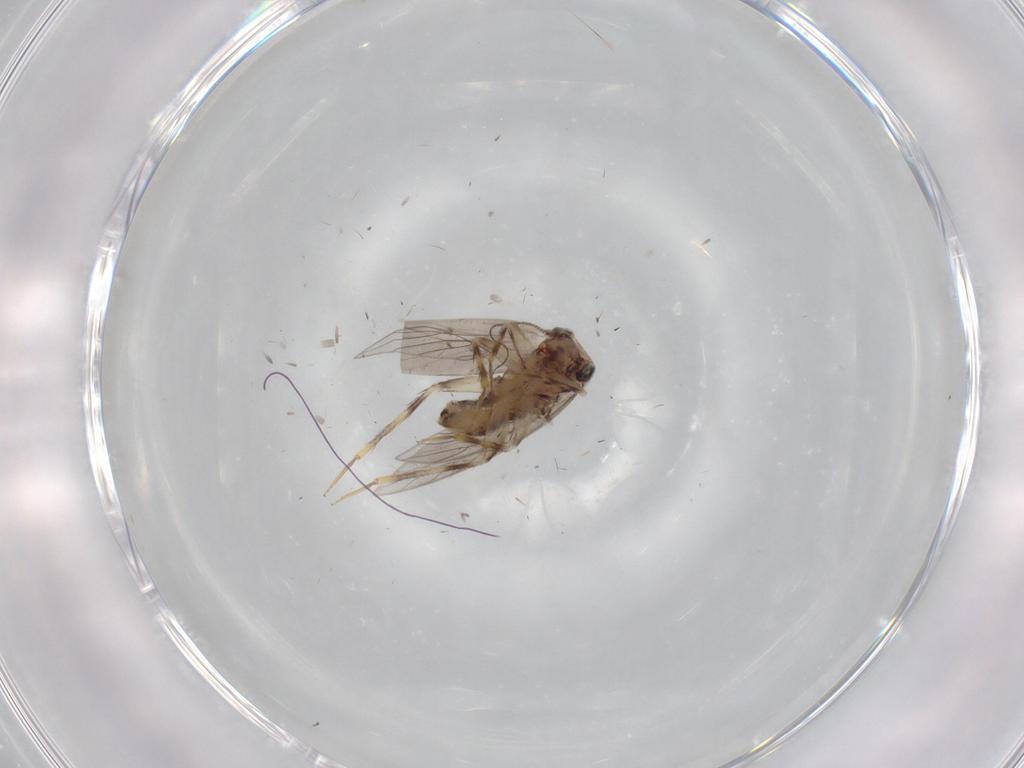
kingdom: Animalia
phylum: Arthropoda
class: Insecta
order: Psocodea
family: Lepidopsocidae
